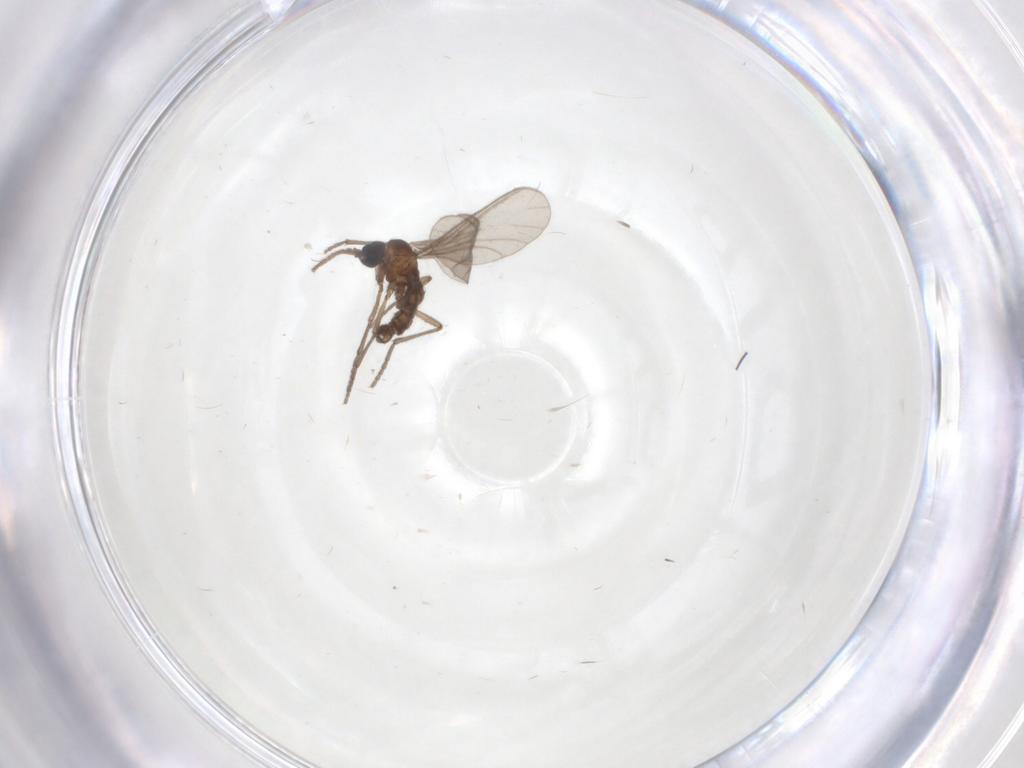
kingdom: Animalia
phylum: Arthropoda
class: Insecta
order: Diptera
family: Sciaridae
